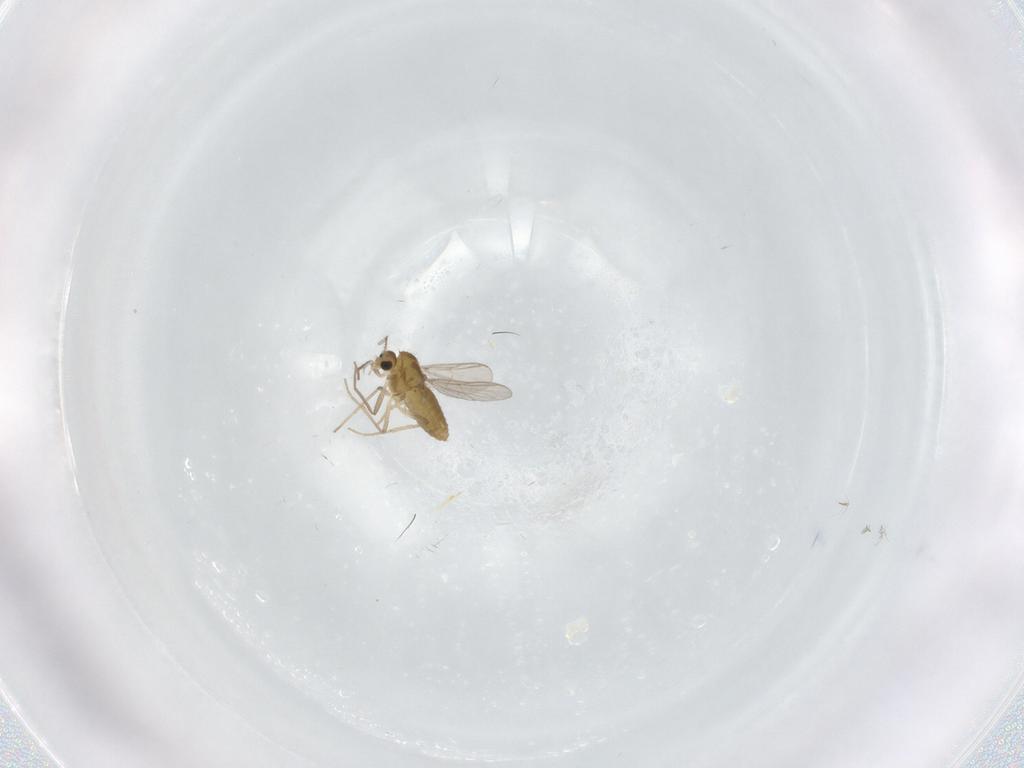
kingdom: Animalia
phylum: Arthropoda
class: Insecta
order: Diptera
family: Chironomidae
